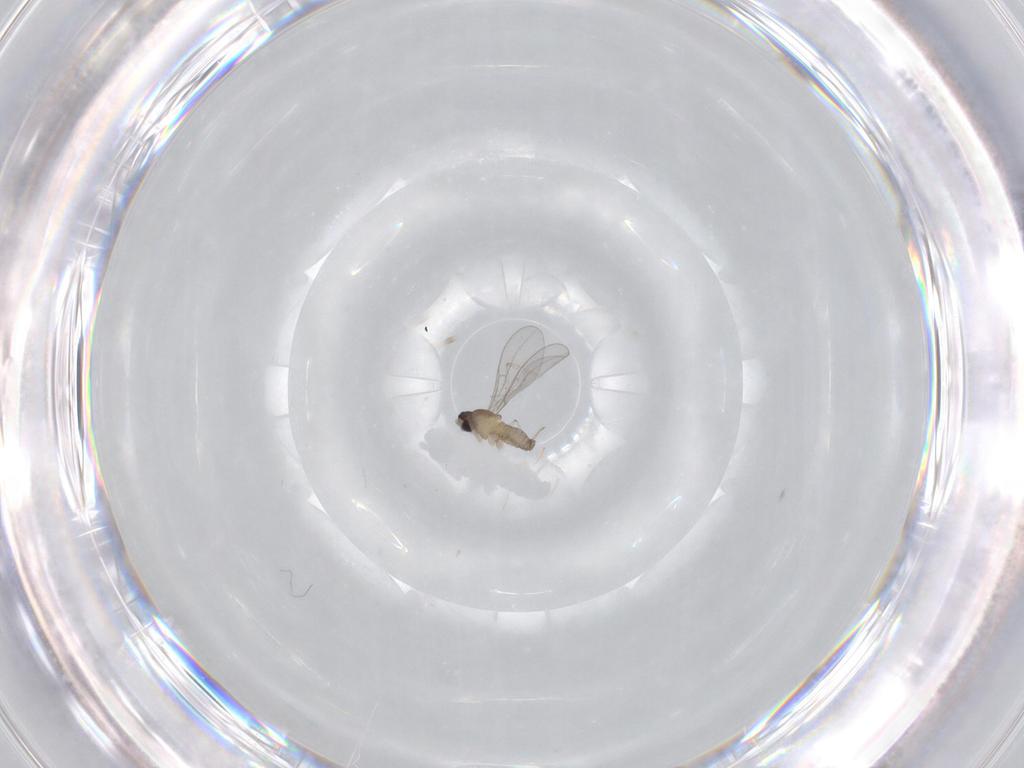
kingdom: Animalia
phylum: Arthropoda
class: Insecta
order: Diptera
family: Cecidomyiidae
